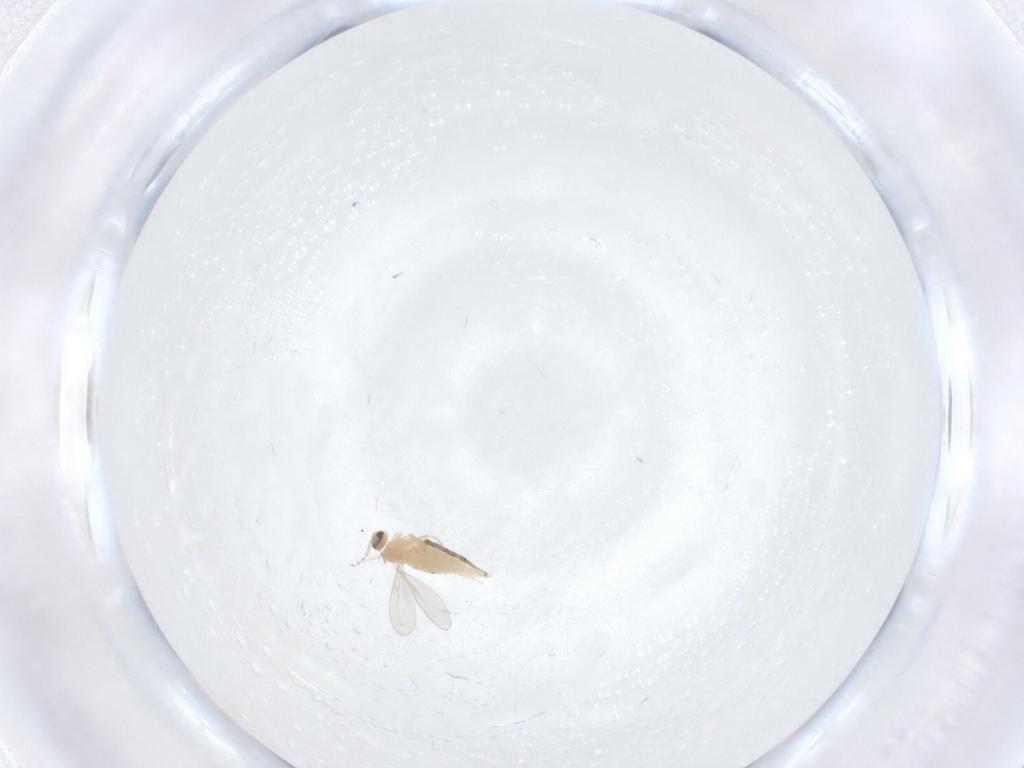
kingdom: Animalia
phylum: Arthropoda
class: Insecta
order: Diptera
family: Cecidomyiidae
